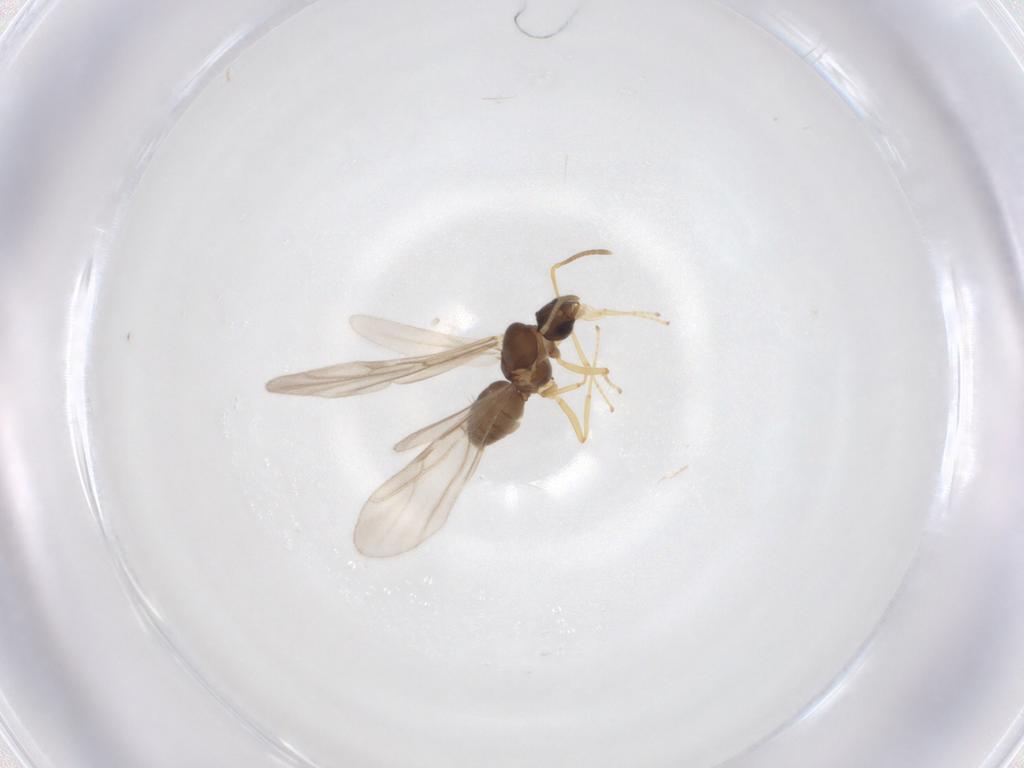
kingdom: Animalia
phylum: Arthropoda
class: Insecta
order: Hymenoptera
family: Formicidae
